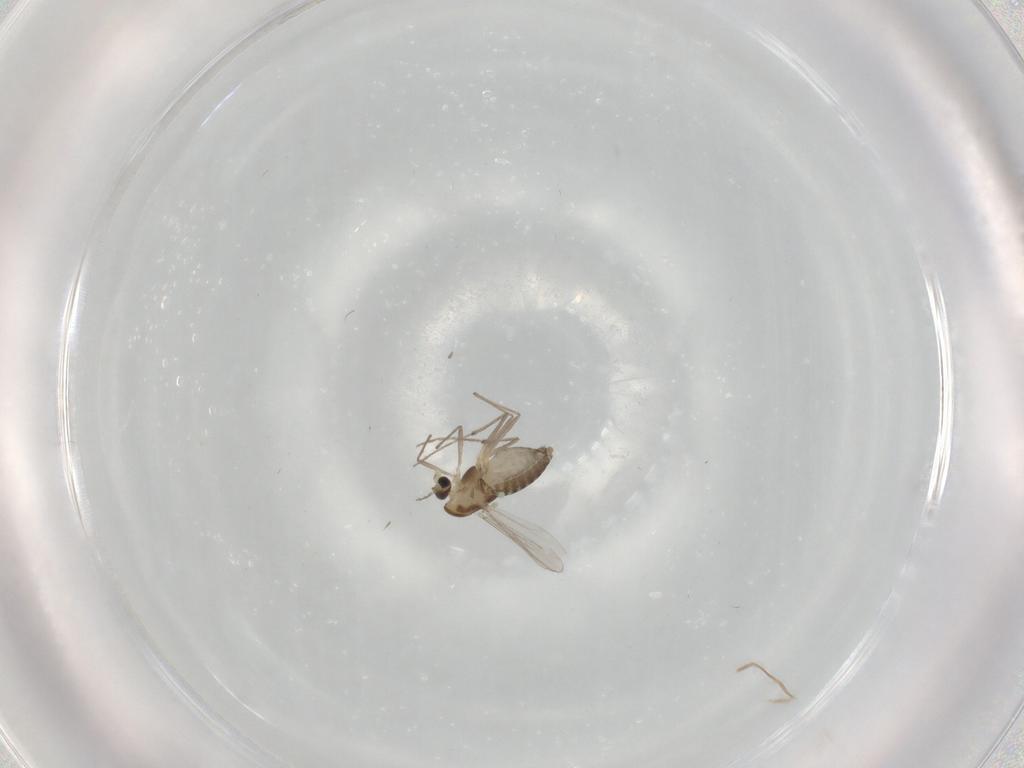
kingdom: Animalia
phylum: Arthropoda
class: Insecta
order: Diptera
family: Chironomidae
